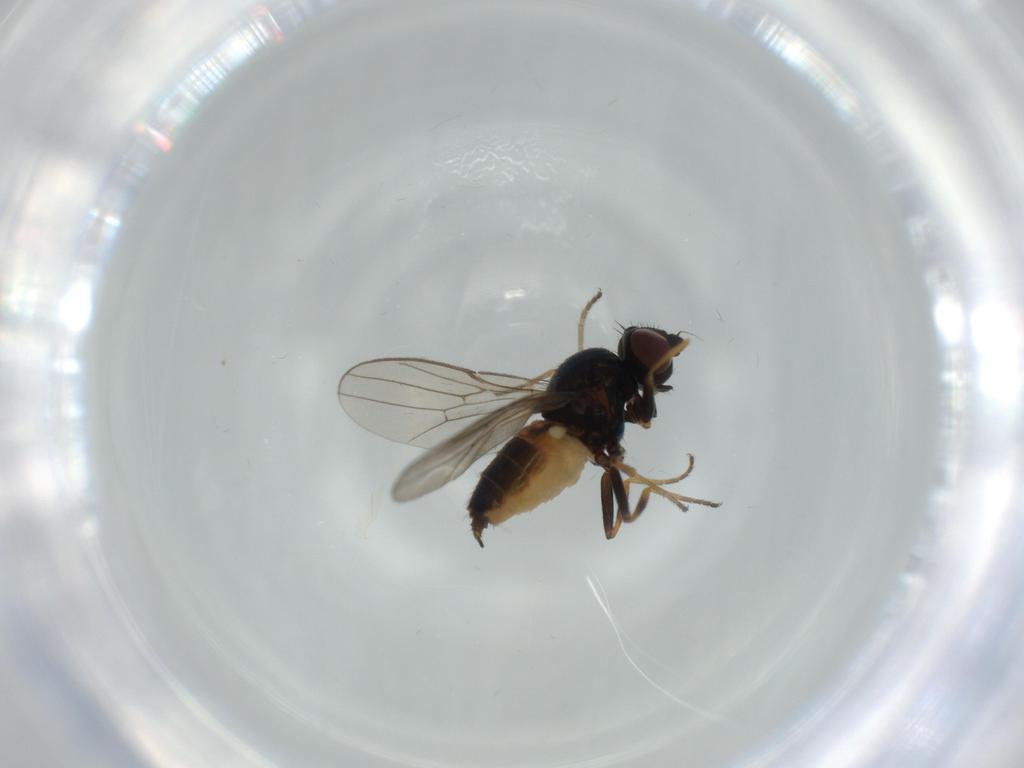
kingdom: Animalia
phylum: Arthropoda
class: Insecta
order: Diptera
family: Chloropidae
